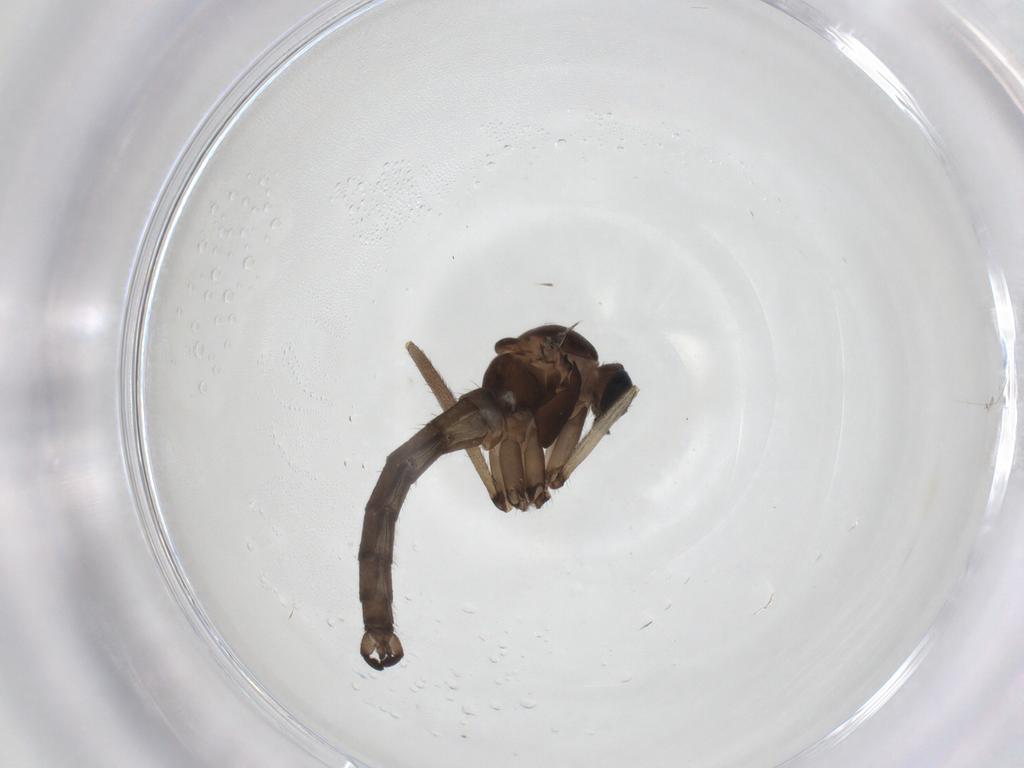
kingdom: Animalia
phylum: Arthropoda
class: Insecta
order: Diptera
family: Sciaridae
